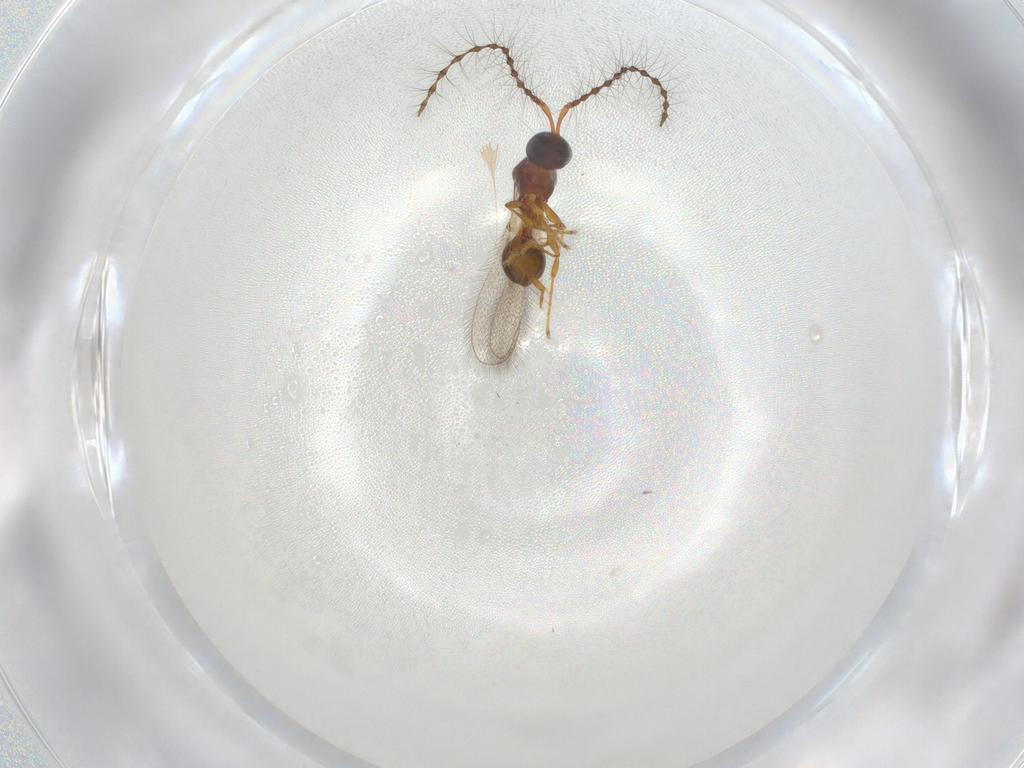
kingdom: Animalia
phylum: Arthropoda
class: Insecta
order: Hymenoptera
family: Diapriidae
